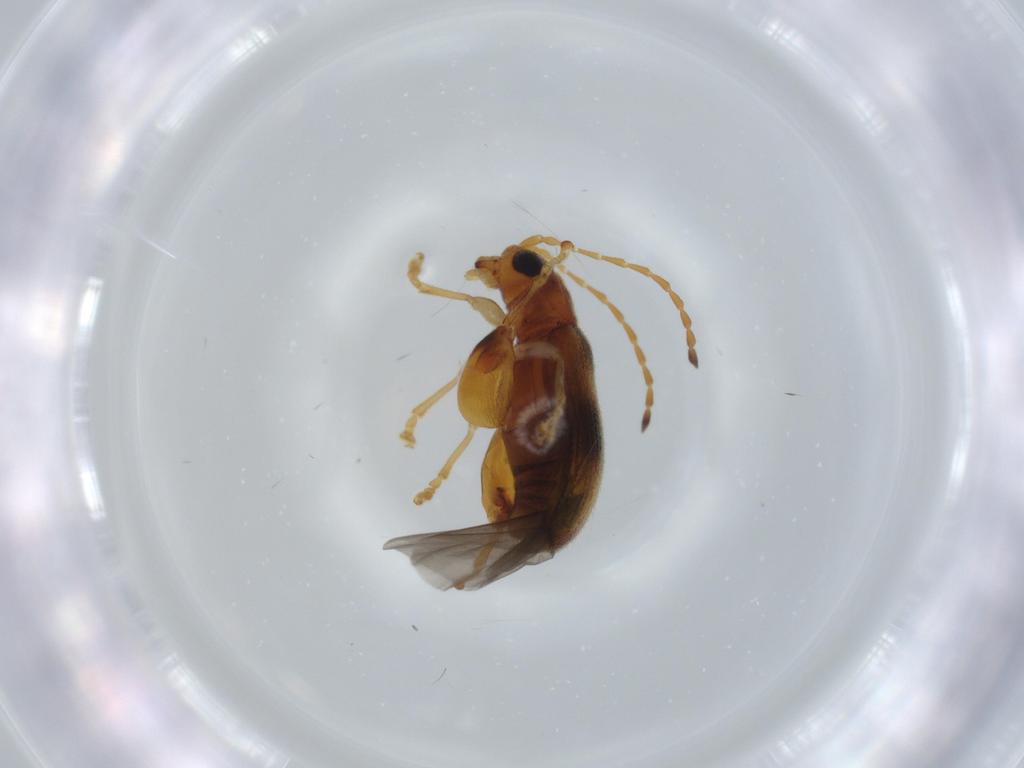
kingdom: Animalia
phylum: Arthropoda
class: Insecta
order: Coleoptera
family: Chrysomelidae
